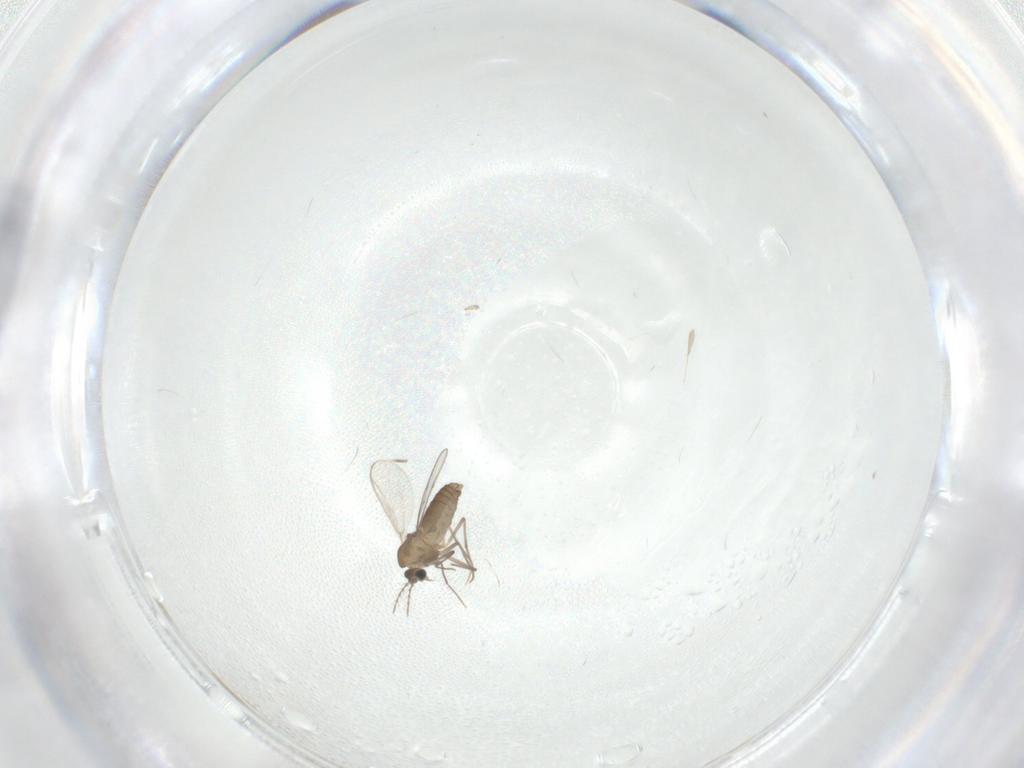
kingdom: Animalia
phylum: Arthropoda
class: Insecta
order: Diptera
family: Chironomidae
